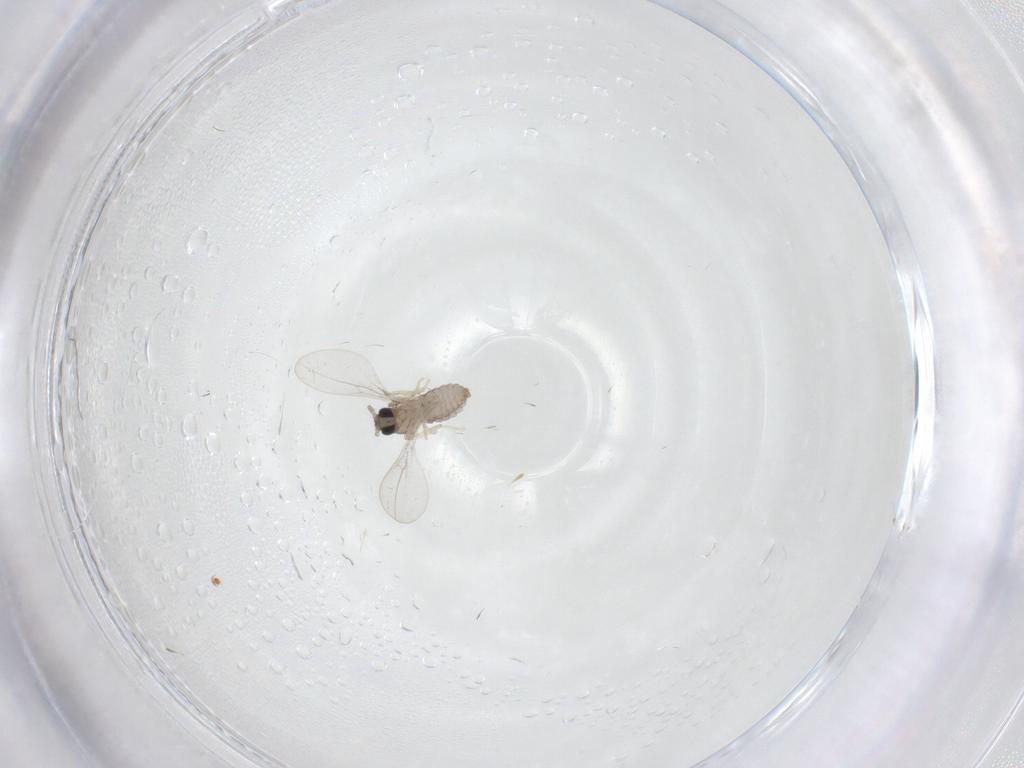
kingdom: Animalia
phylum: Arthropoda
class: Insecta
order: Diptera
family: Cecidomyiidae
